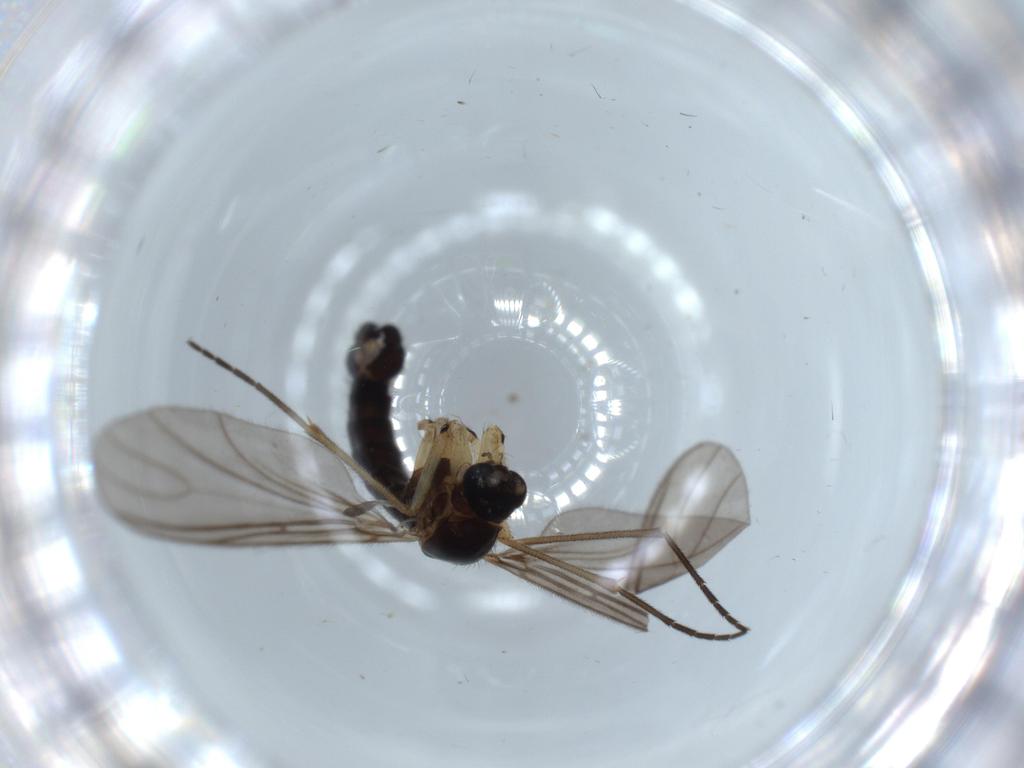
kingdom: Animalia
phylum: Arthropoda
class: Insecta
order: Diptera
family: Sciaridae
